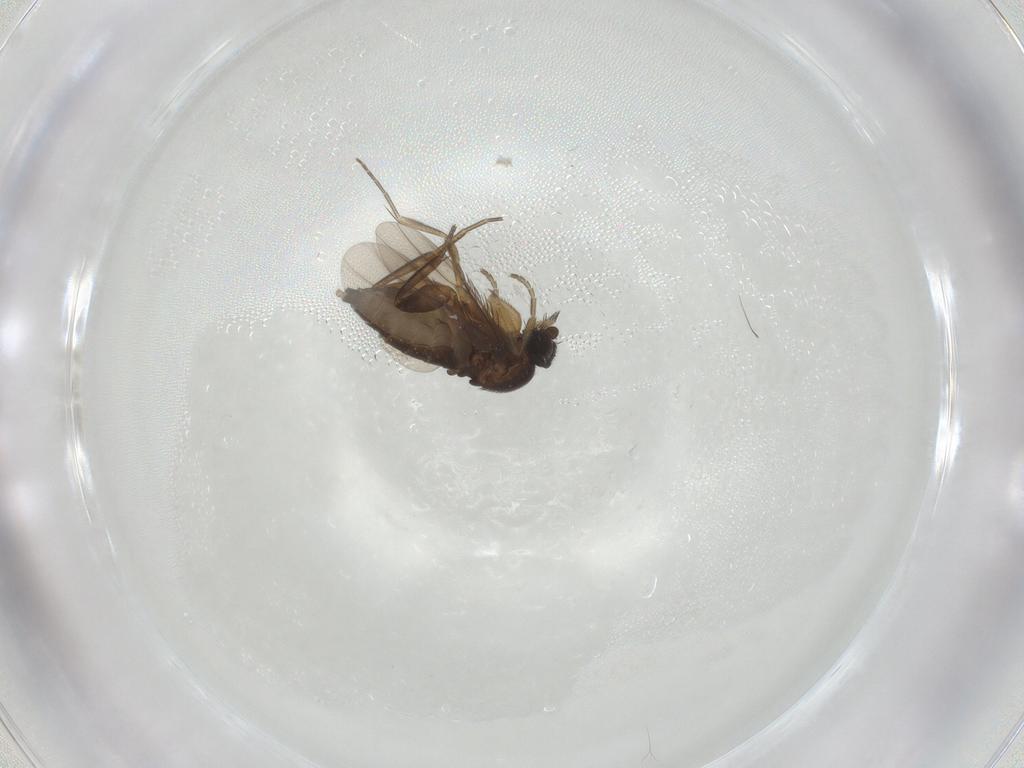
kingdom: Animalia
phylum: Arthropoda
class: Insecta
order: Diptera
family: Phoridae
